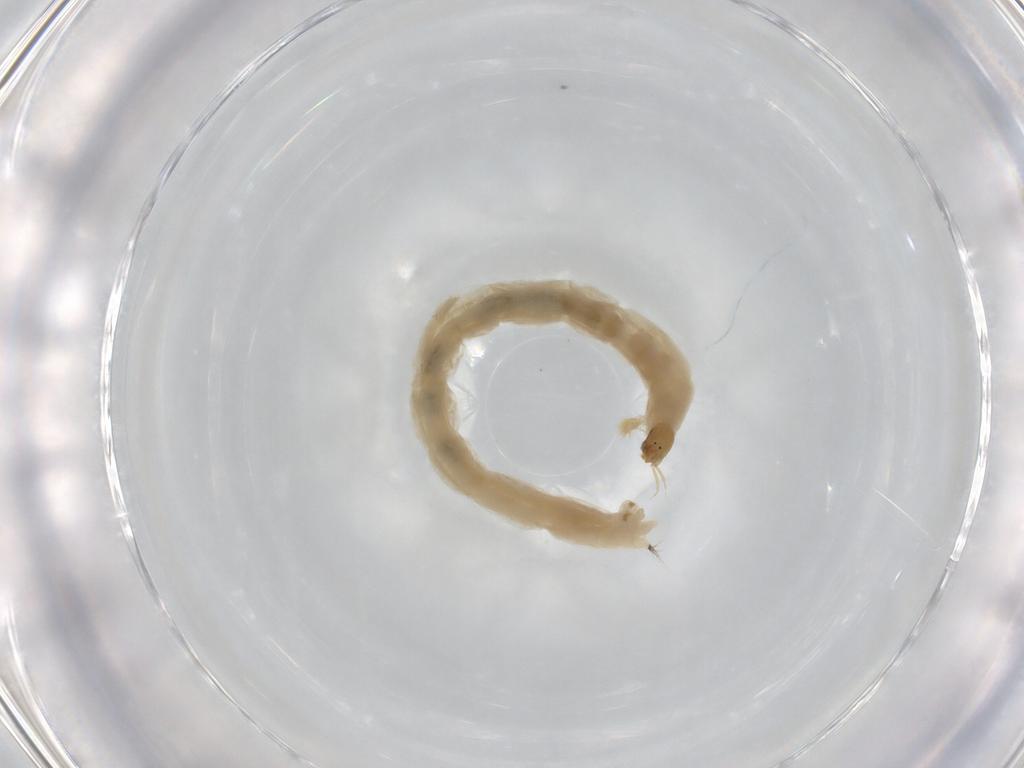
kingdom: Animalia
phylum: Arthropoda
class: Insecta
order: Diptera
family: Chironomidae
